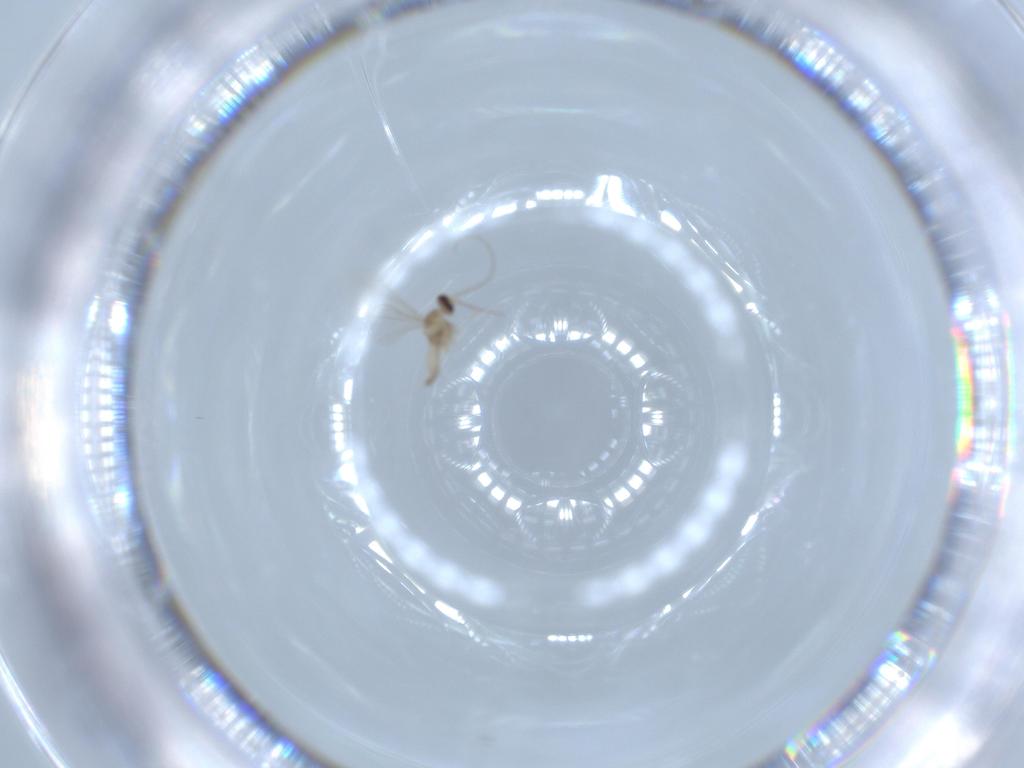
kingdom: Animalia
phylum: Arthropoda
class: Insecta
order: Diptera
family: Cecidomyiidae
